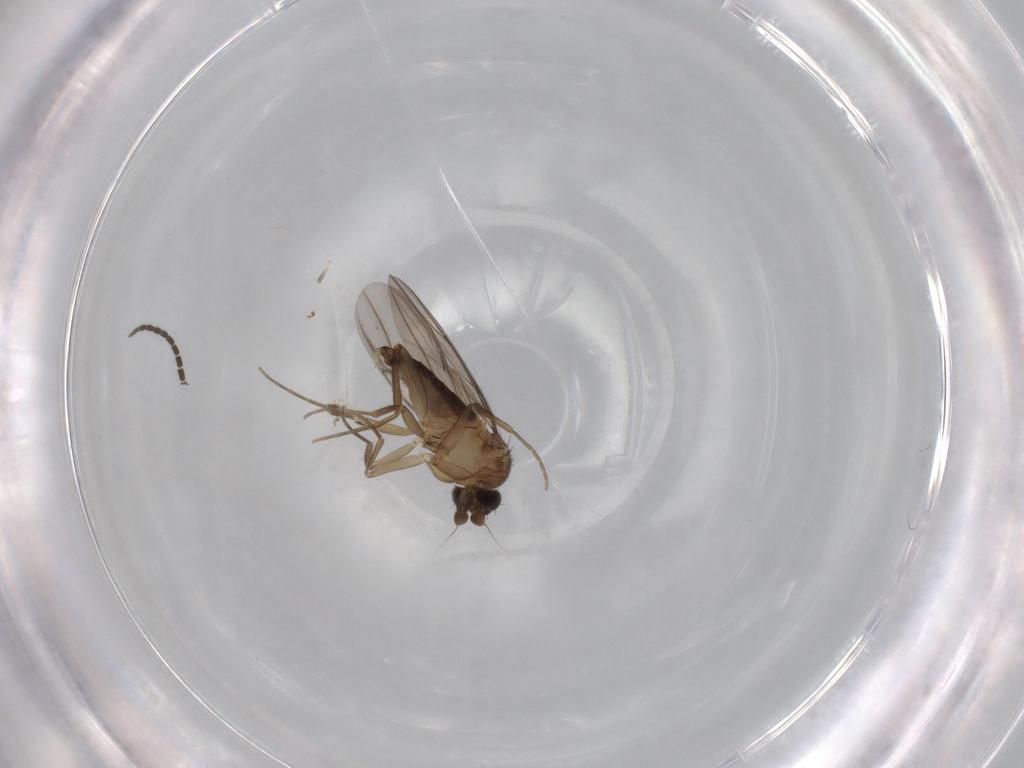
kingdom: Animalia
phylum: Arthropoda
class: Insecta
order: Diptera
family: Phoridae
